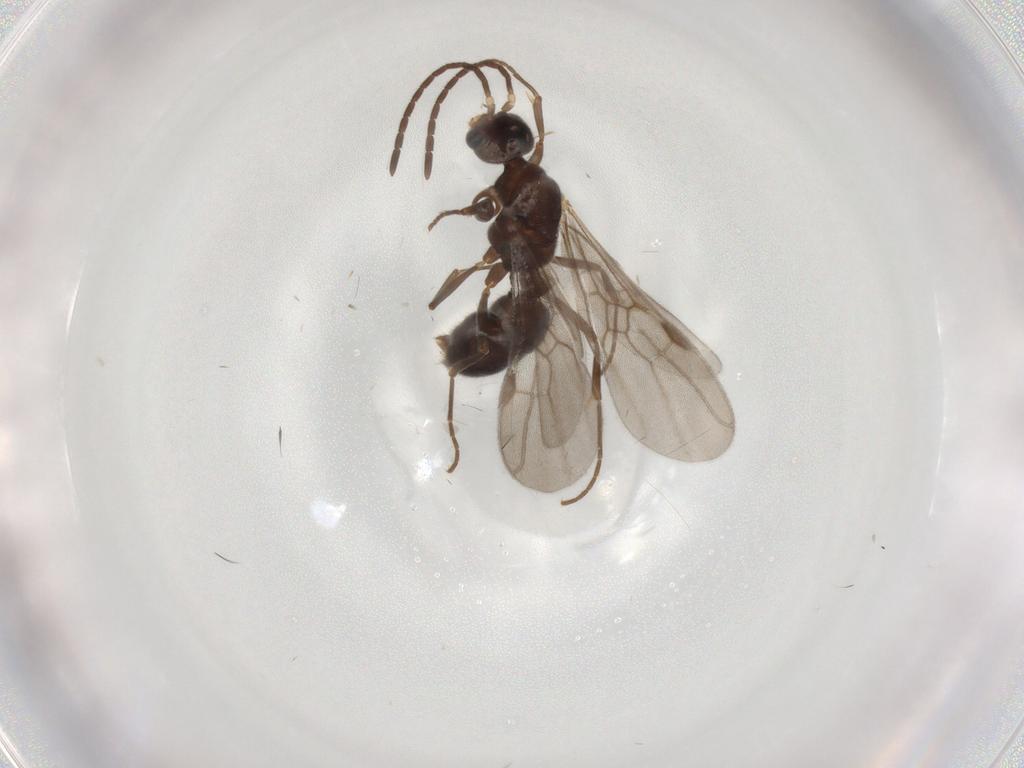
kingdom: Animalia
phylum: Arthropoda
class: Insecta
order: Hymenoptera
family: Formicidae
